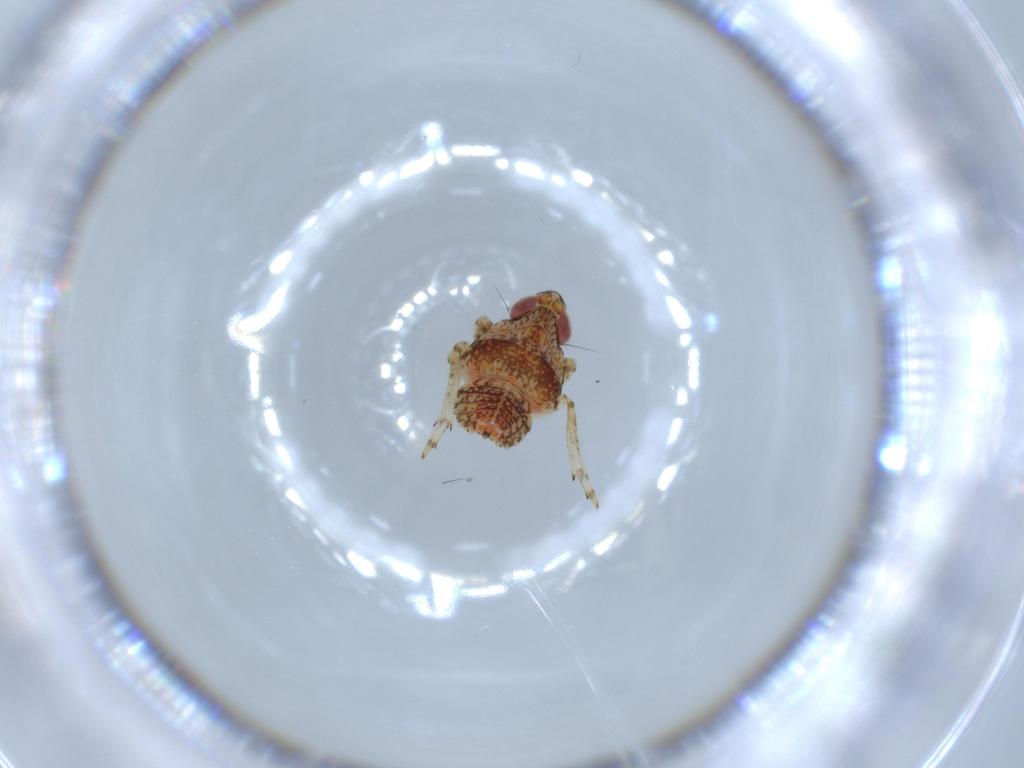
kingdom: Animalia
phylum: Arthropoda
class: Insecta
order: Hemiptera
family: Issidae
